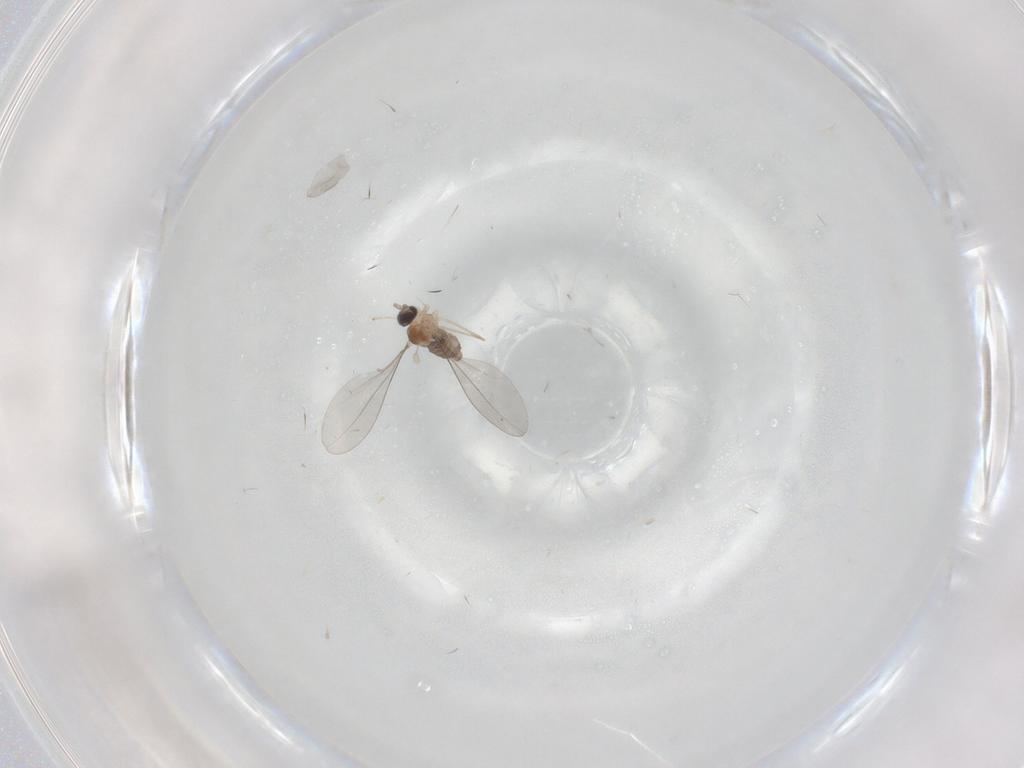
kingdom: Animalia
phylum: Arthropoda
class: Insecta
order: Diptera
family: Cecidomyiidae
